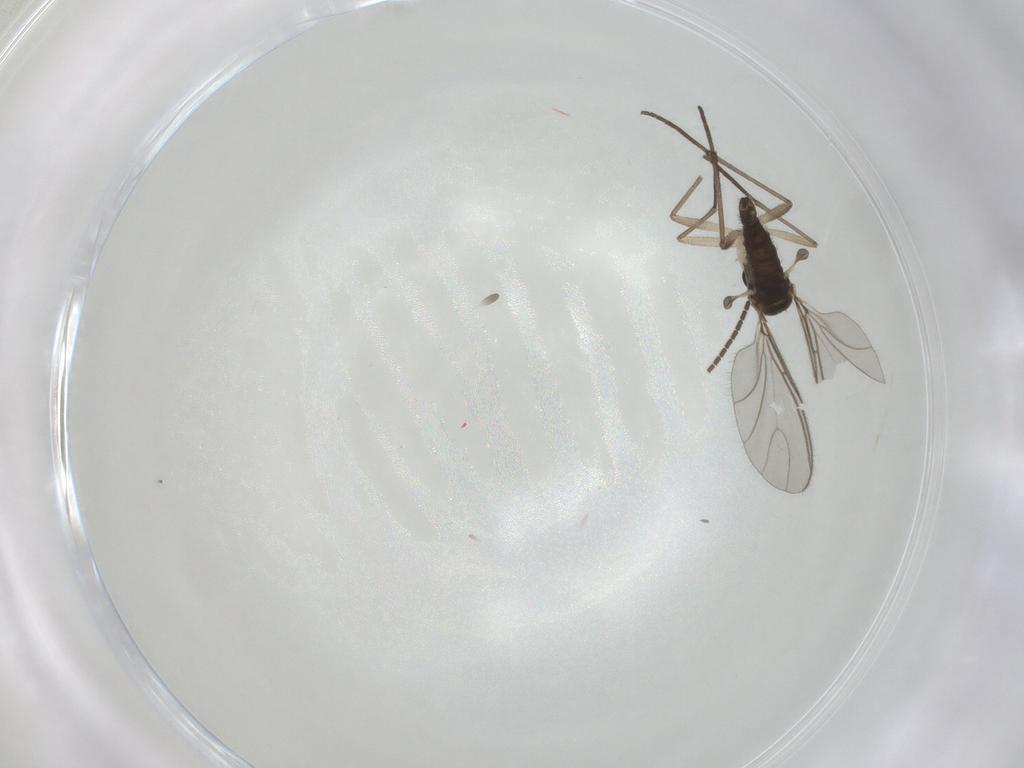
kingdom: Animalia
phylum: Arthropoda
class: Insecta
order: Diptera
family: Sciaridae
